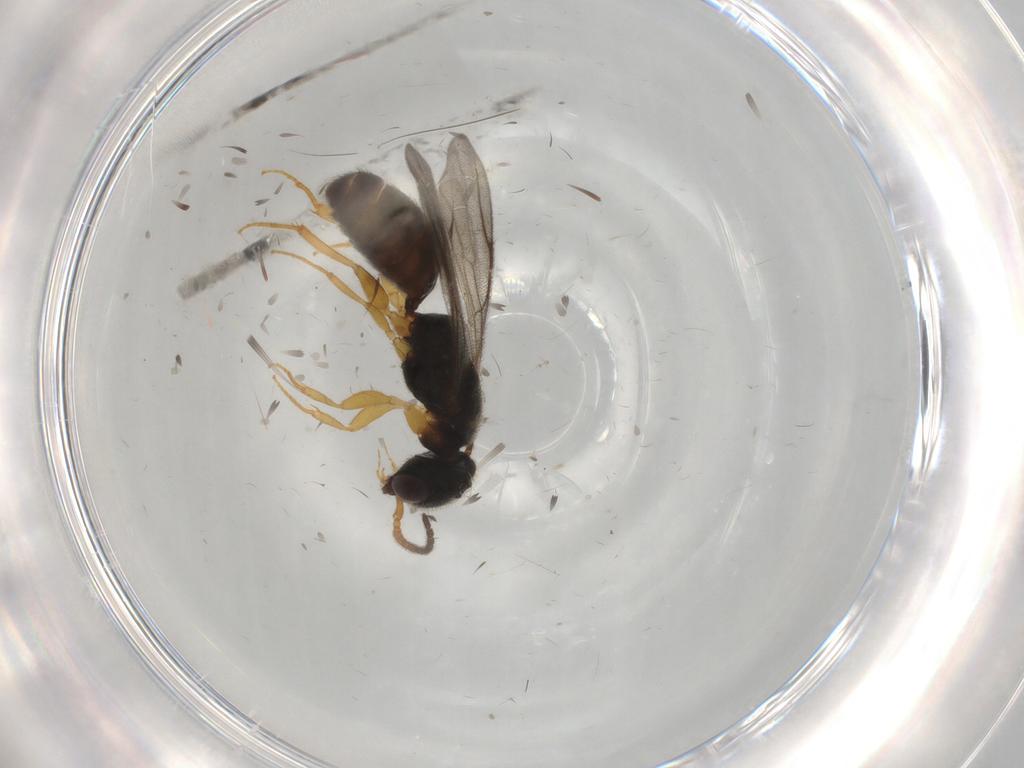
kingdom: Animalia
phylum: Arthropoda
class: Insecta
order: Hymenoptera
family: Bethylidae
